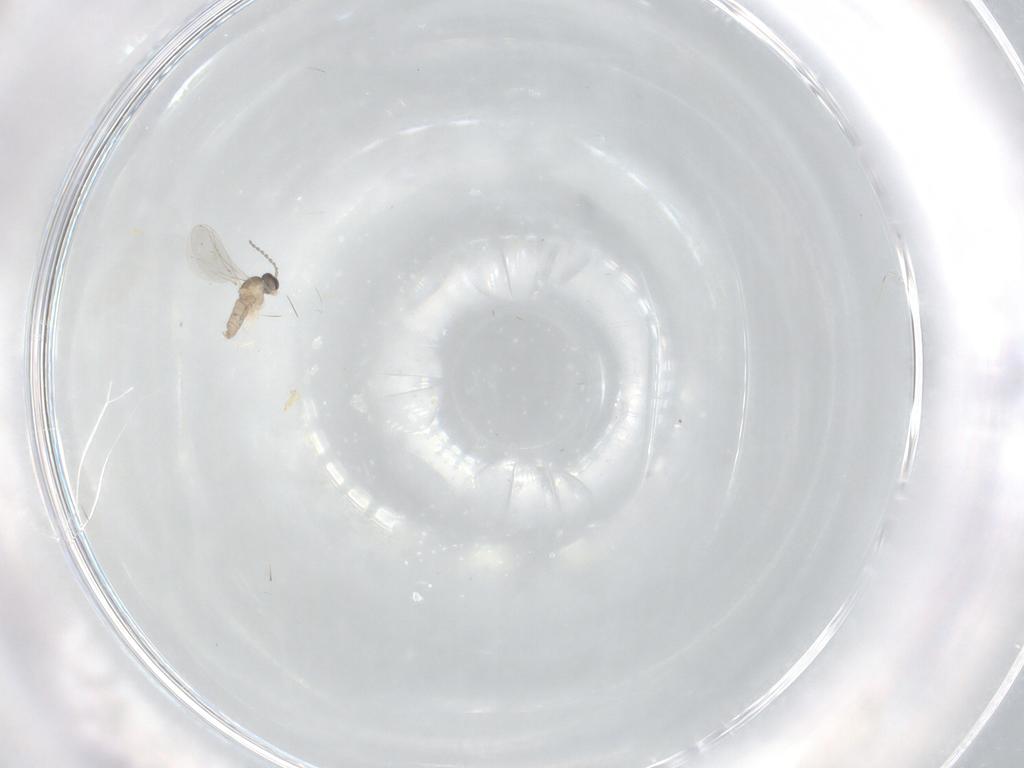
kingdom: Animalia
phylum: Arthropoda
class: Insecta
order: Diptera
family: Cecidomyiidae
